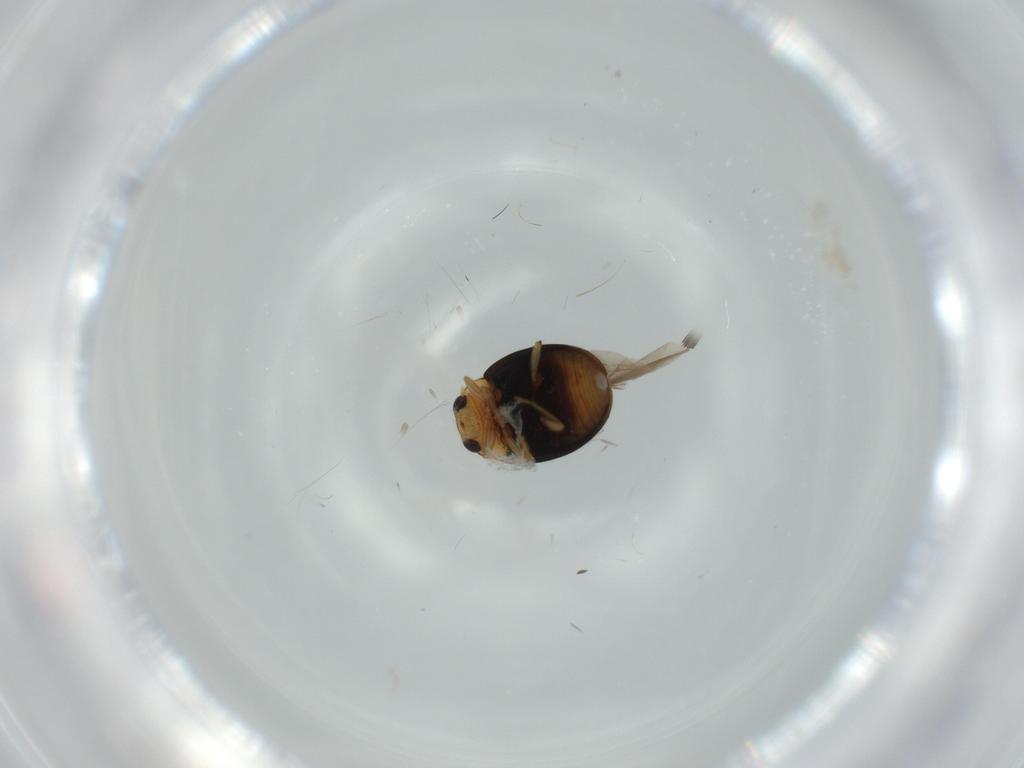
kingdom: Animalia
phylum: Arthropoda
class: Insecta
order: Coleoptera
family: Coccinellidae
